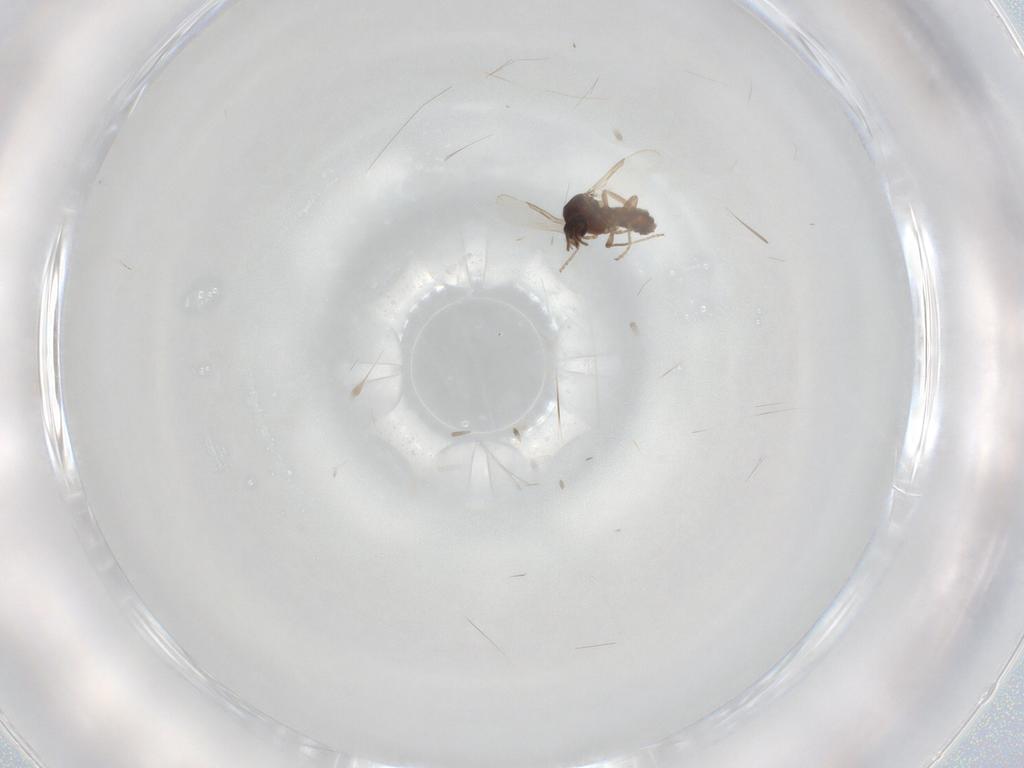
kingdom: Animalia
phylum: Arthropoda
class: Insecta
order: Diptera
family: Ceratopogonidae
